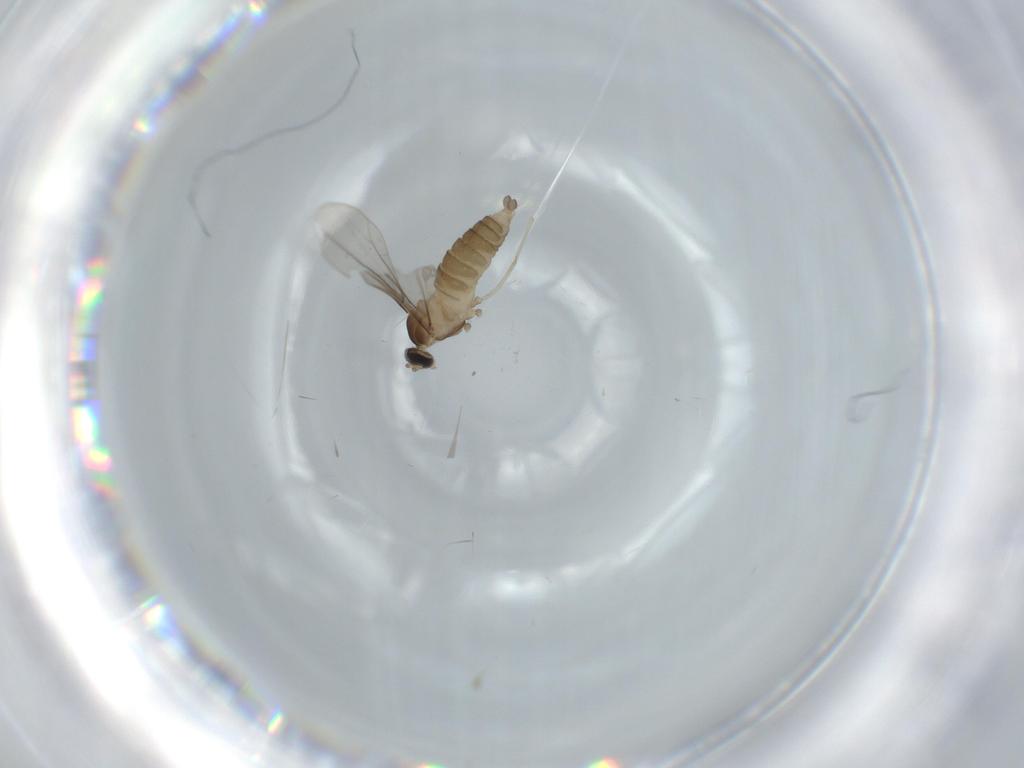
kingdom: Animalia
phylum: Arthropoda
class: Insecta
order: Diptera
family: Cecidomyiidae
